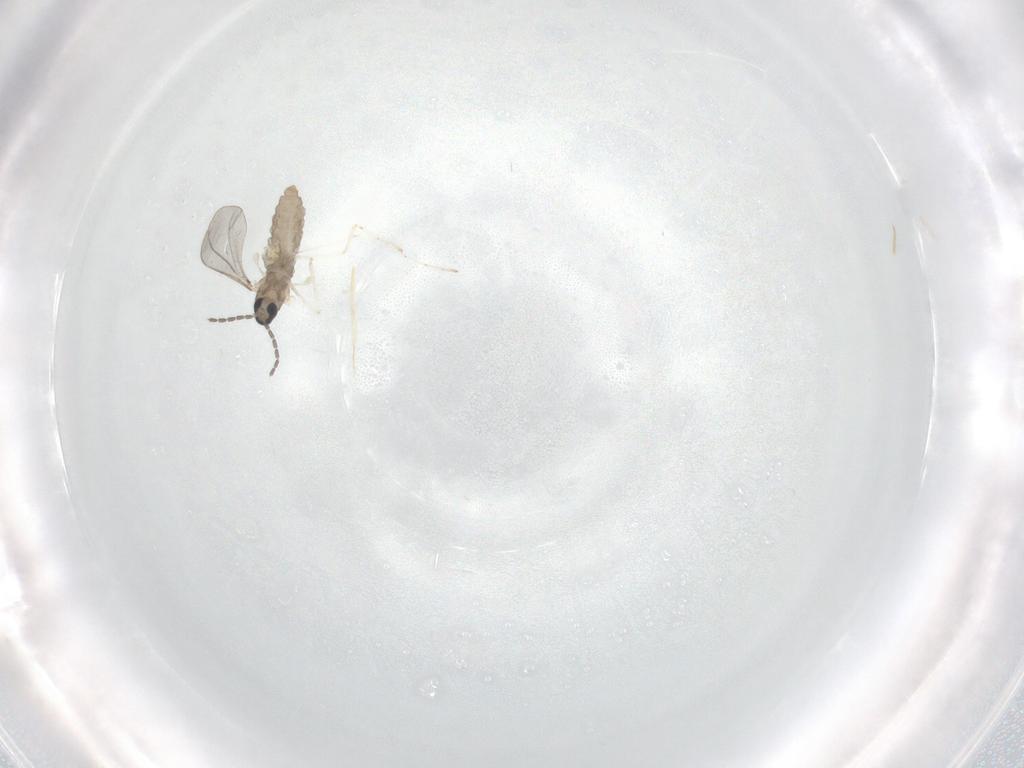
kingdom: Animalia
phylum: Arthropoda
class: Insecta
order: Diptera
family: Cecidomyiidae
